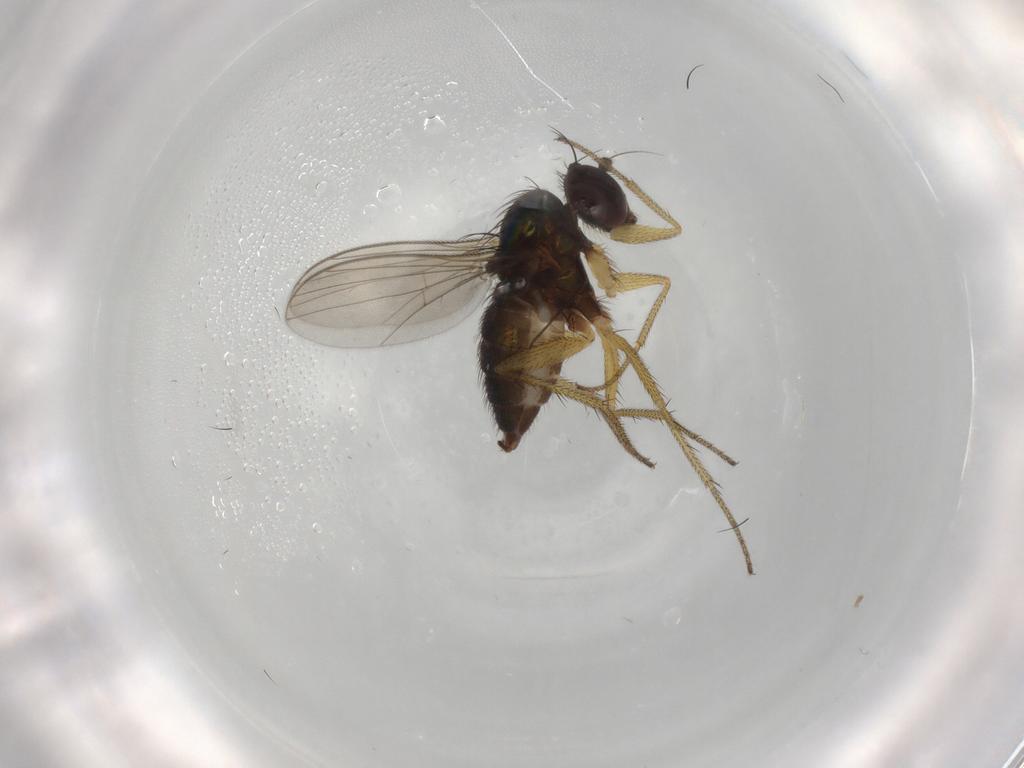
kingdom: Animalia
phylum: Arthropoda
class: Insecta
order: Diptera
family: Dolichopodidae
